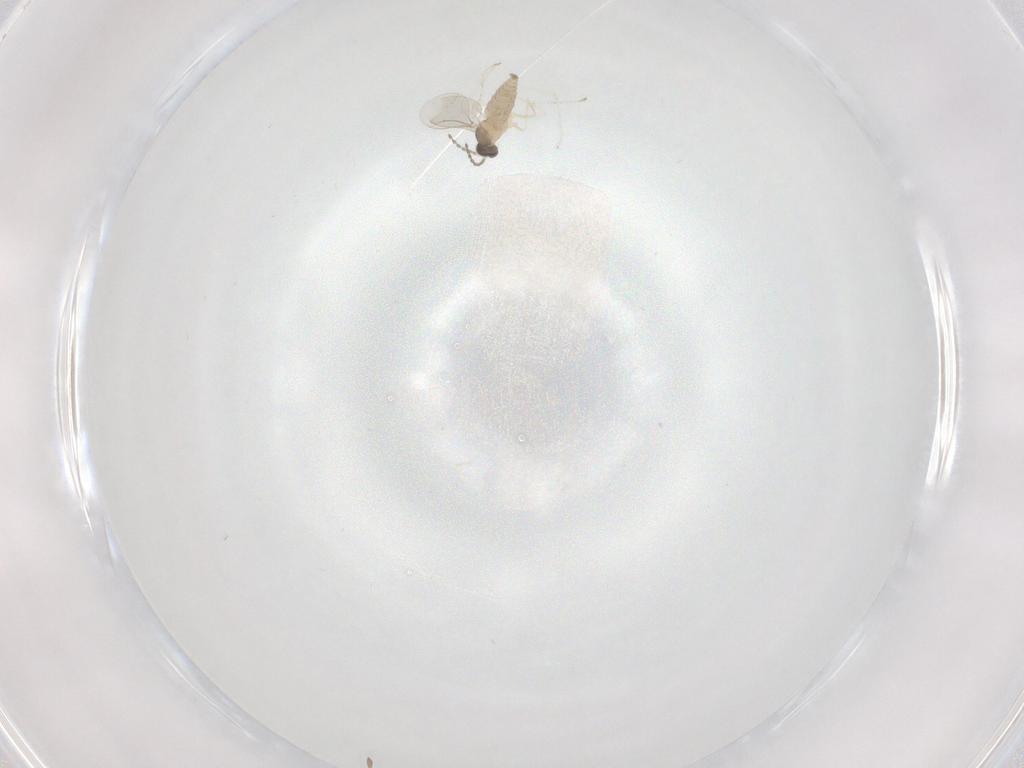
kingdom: Animalia
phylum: Arthropoda
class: Insecta
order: Diptera
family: Cecidomyiidae
